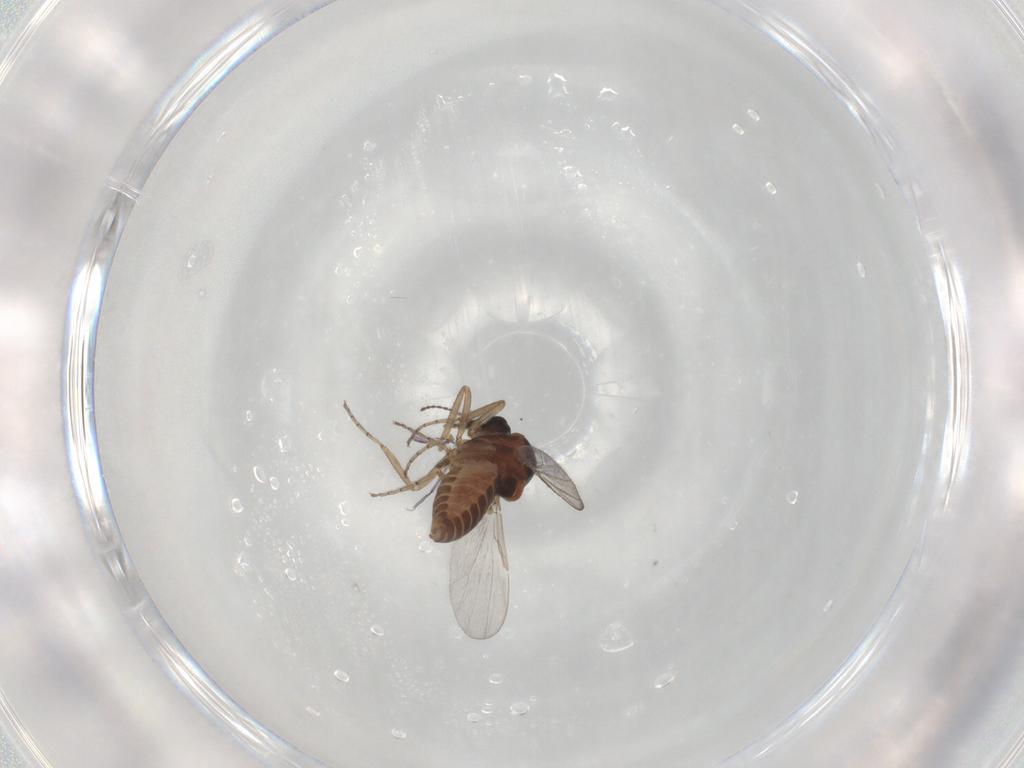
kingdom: Animalia
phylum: Arthropoda
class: Insecta
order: Diptera
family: Ceratopogonidae
